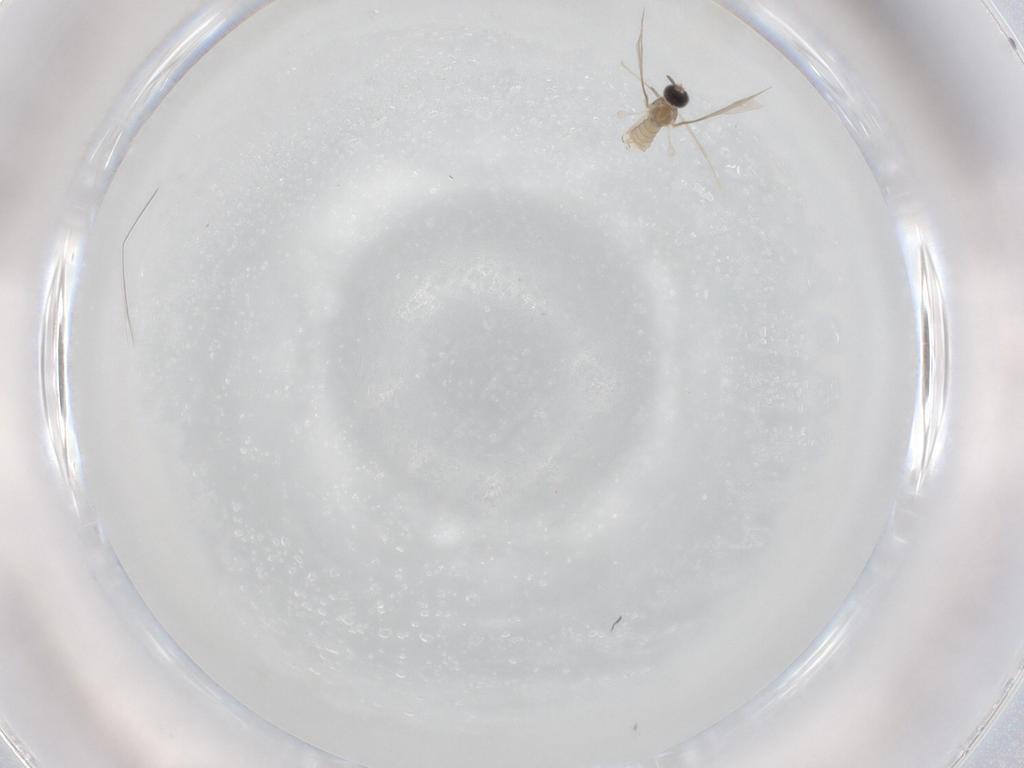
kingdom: Animalia
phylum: Arthropoda
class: Insecta
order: Diptera
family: Cecidomyiidae
